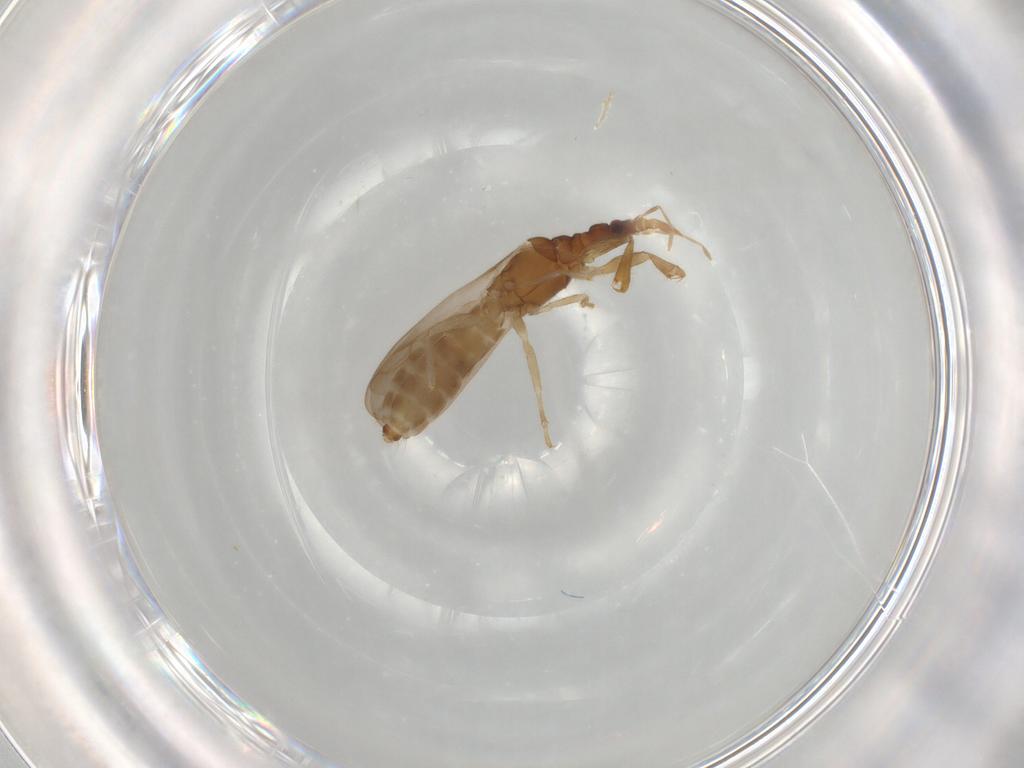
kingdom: Animalia
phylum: Arthropoda
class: Insecta
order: Hemiptera
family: Enicocephalidae
